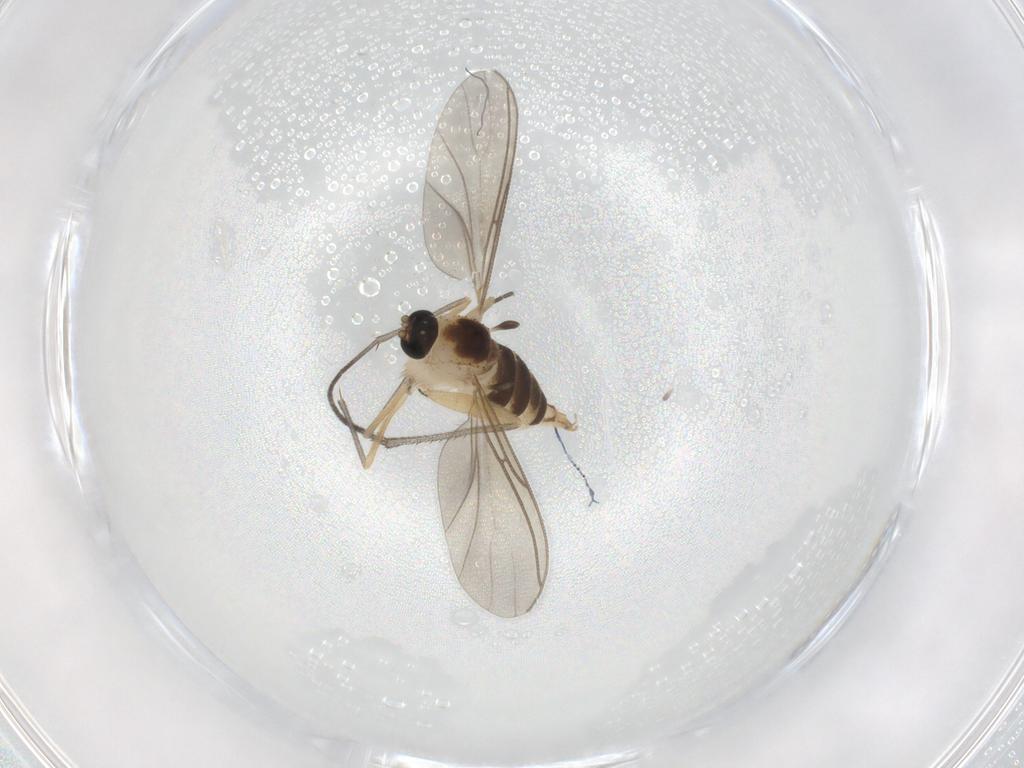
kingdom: Animalia
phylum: Arthropoda
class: Insecta
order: Diptera
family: Sciaridae
